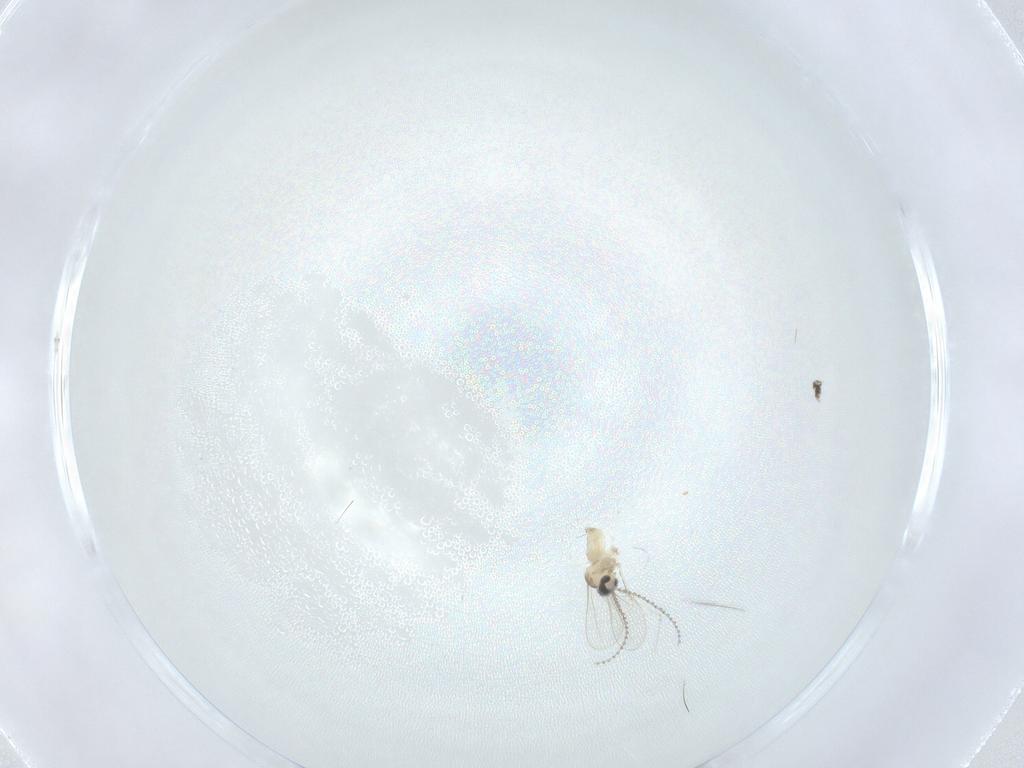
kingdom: Animalia
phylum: Arthropoda
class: Insecta
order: Diptera
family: Cecidomyiidae
